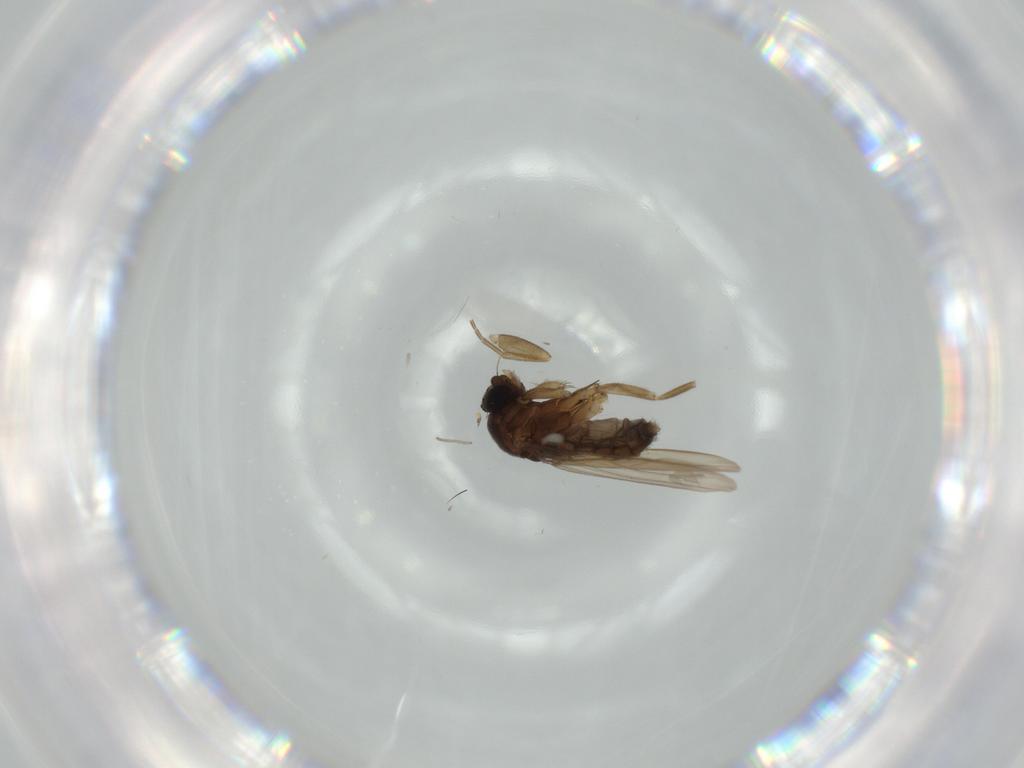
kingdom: Animalia
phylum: Arthropoda
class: Insecta
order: Diptera
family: Phoridae
